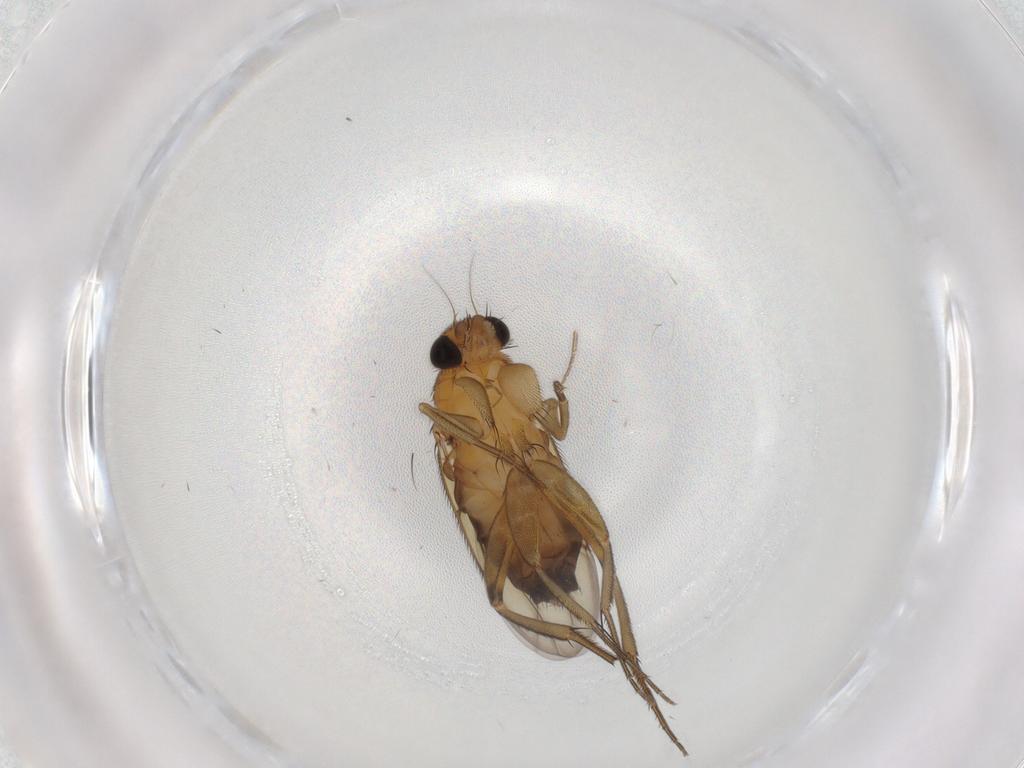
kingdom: Animalia
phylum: Arthropoda
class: Insecta
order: Diptera
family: Phoridae
